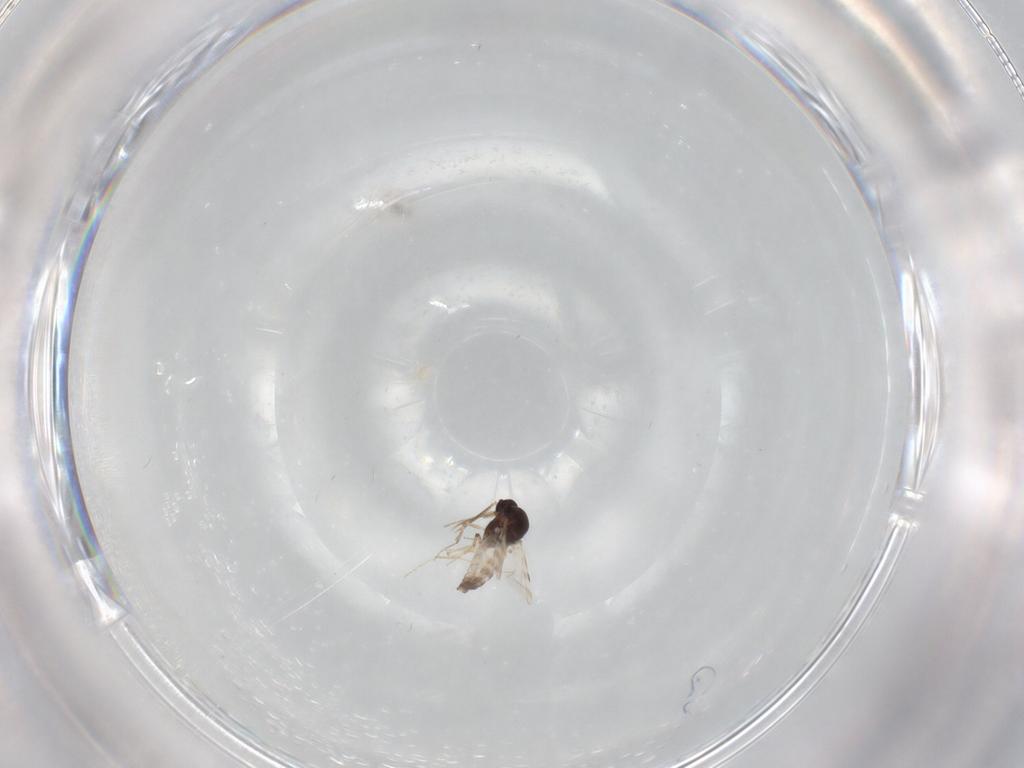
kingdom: Animalia
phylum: Arthropoda
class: Insecta
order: Diptera
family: Phoridae
